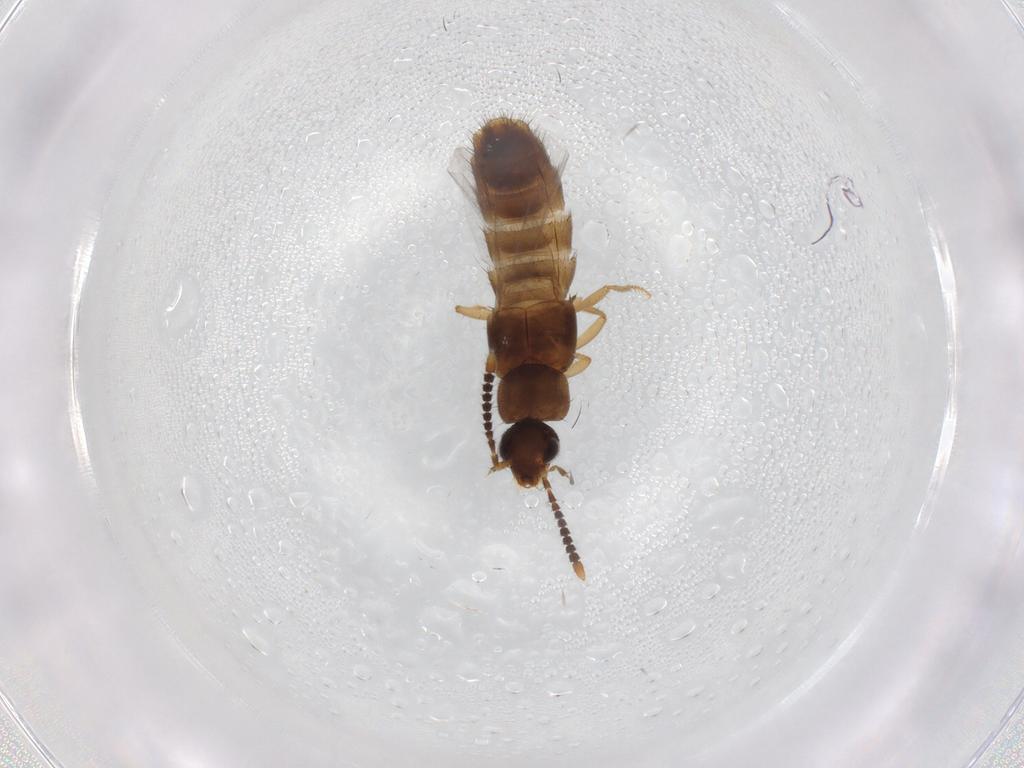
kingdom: Animalia
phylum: Arthropoda
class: Insecta
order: Coleoptera
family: Staphylinidae
